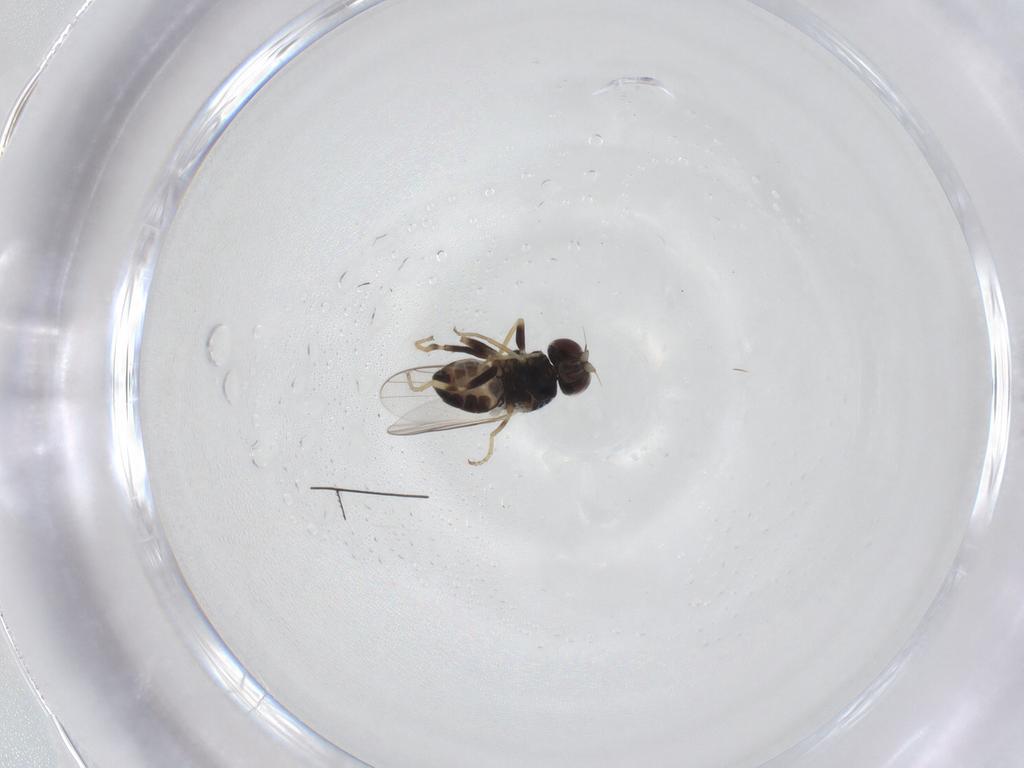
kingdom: Animalia
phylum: Arthropoda
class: Insecta
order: Diptera
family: Chloropidae
